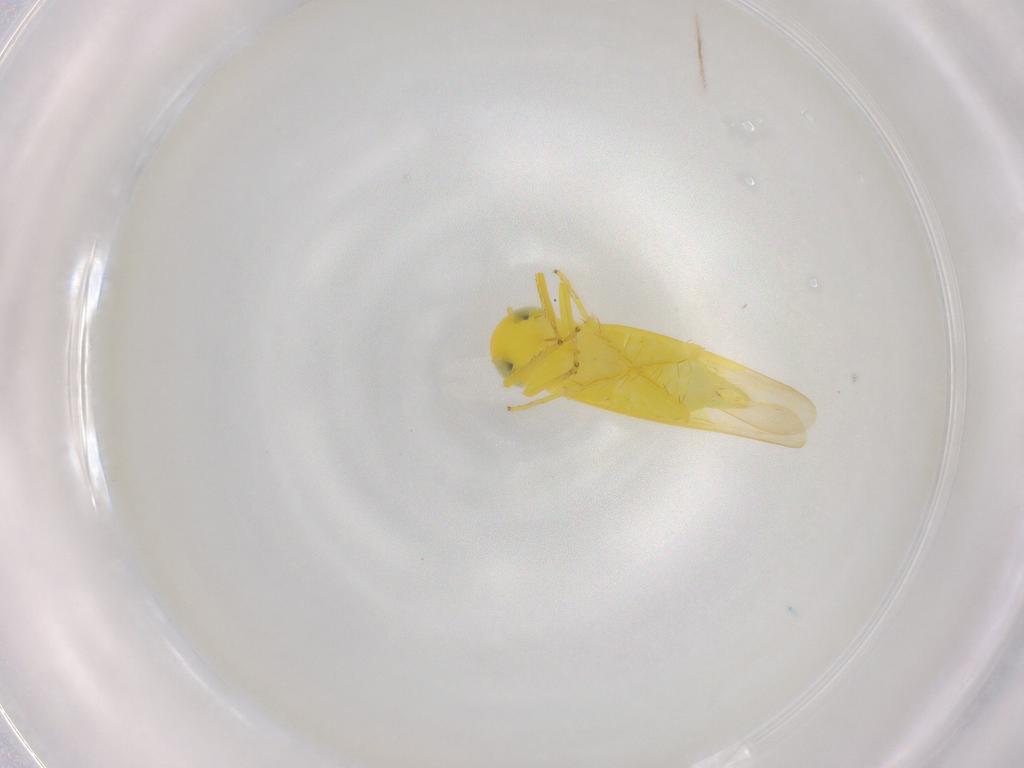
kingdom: Animalia
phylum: Arthropoda
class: Insecta
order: Hemiptera
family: Cicadellidae
